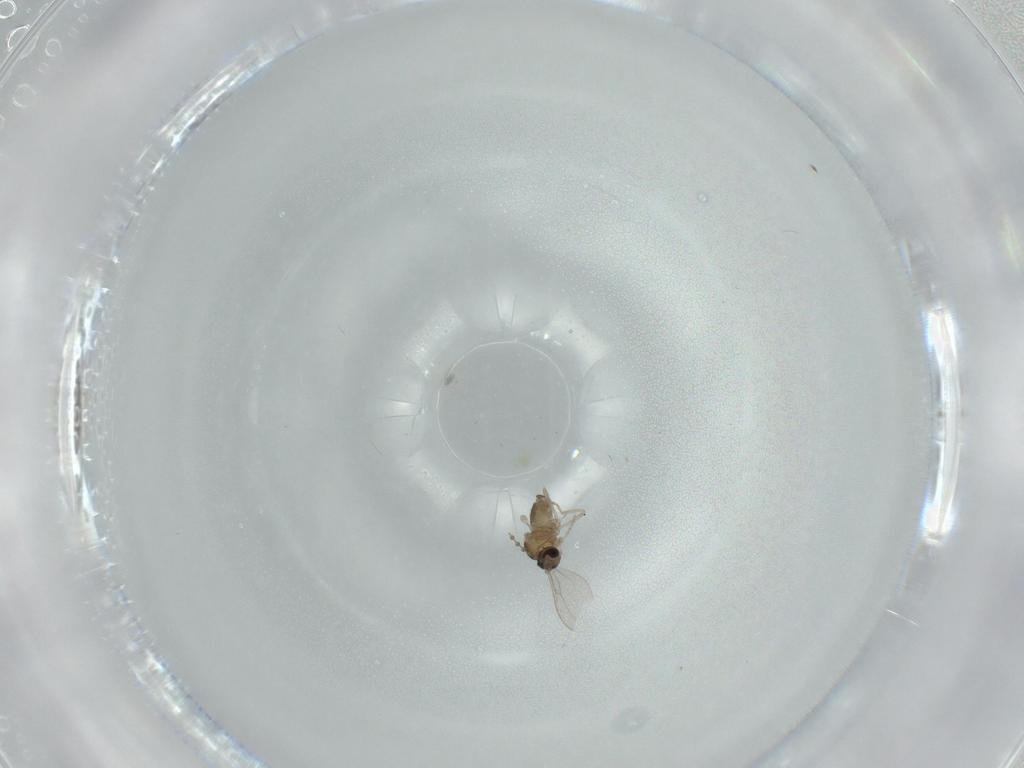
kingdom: Animalia
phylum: Arthropoda
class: Insecta
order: Diptera
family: Cecidomyiidae
